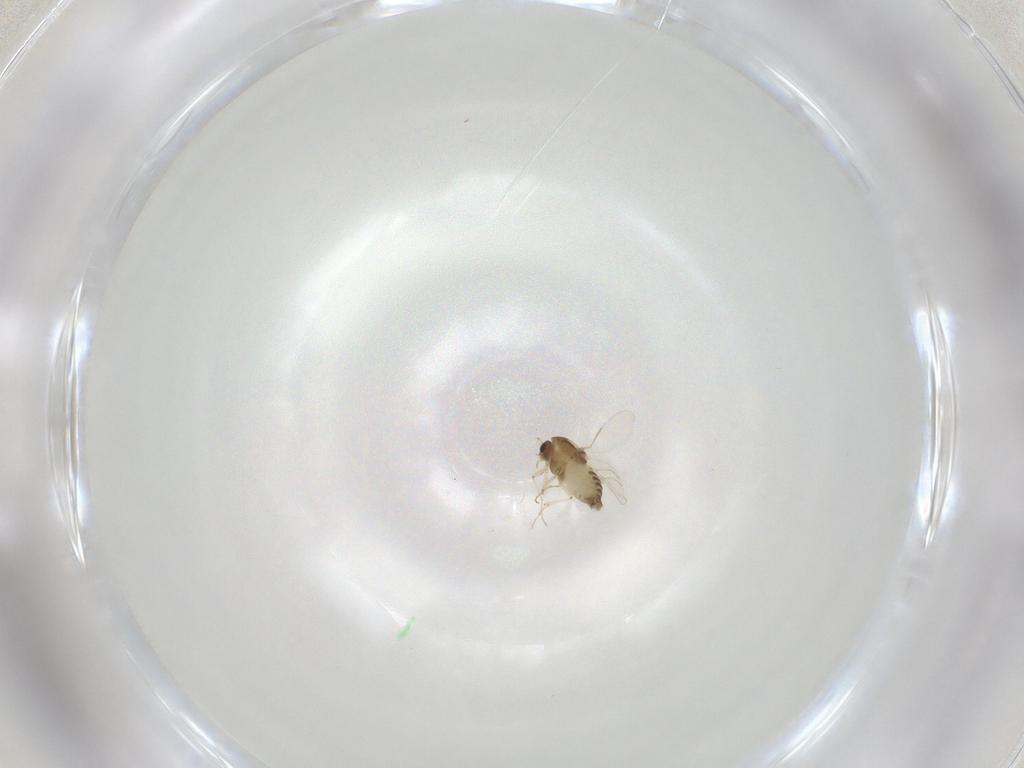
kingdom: Animalia
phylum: Arthropoda
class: Insecta
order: Diptera
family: Chironomidae
